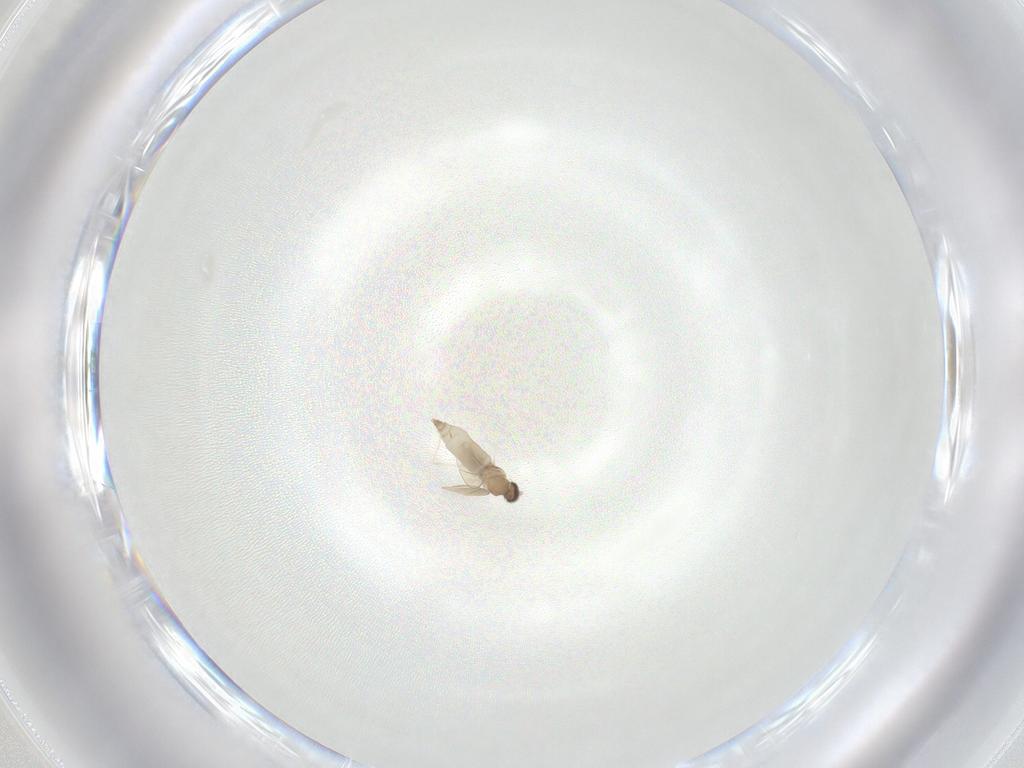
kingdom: Animalia
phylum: Arthropoda
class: Insecta
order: Diptera
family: Cecidomyiidae
